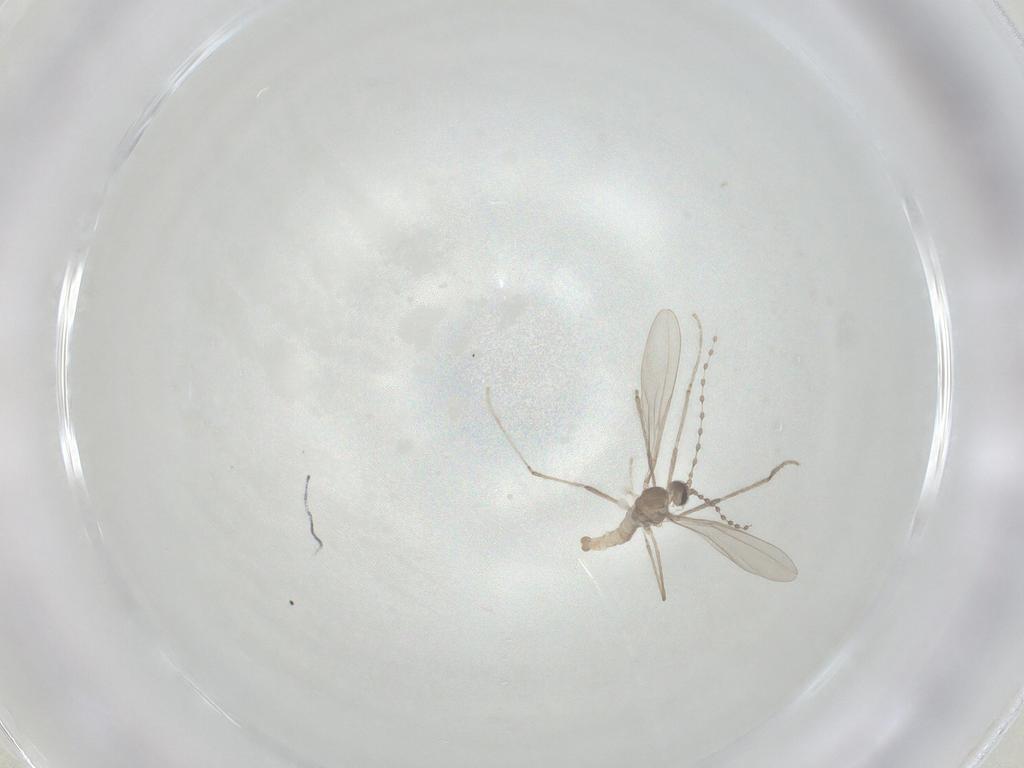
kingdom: Animalia
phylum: Arthropoda
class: Insecta
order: Diptera
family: Cecidomyiidae
